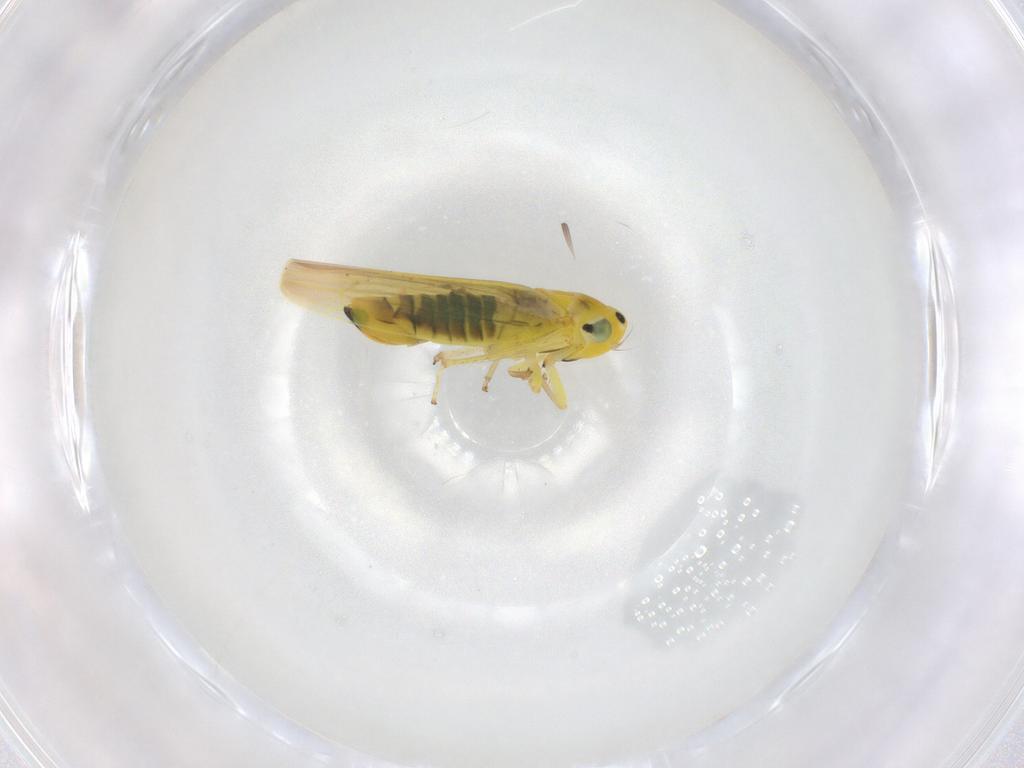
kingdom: Animalia
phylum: Arthropoda
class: Insecta
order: Hemiptera
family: Cicadellidae
